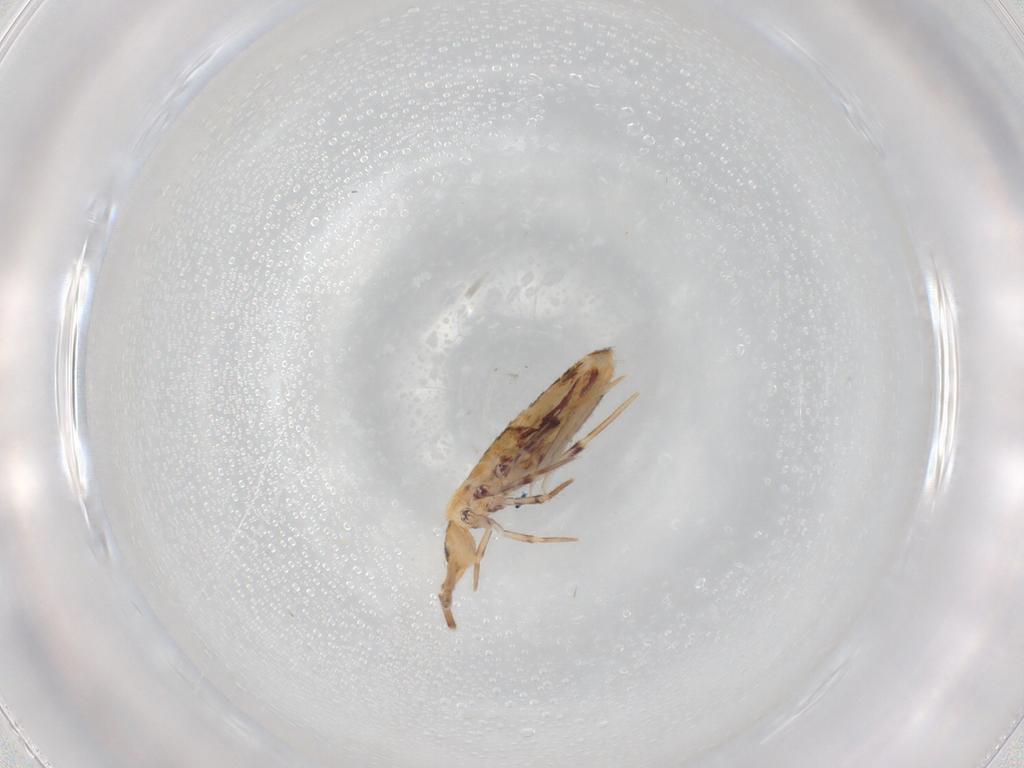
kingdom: Animalia
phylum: Arthropoda
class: Collembola
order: Poduromorpha
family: Hypogastruridae
